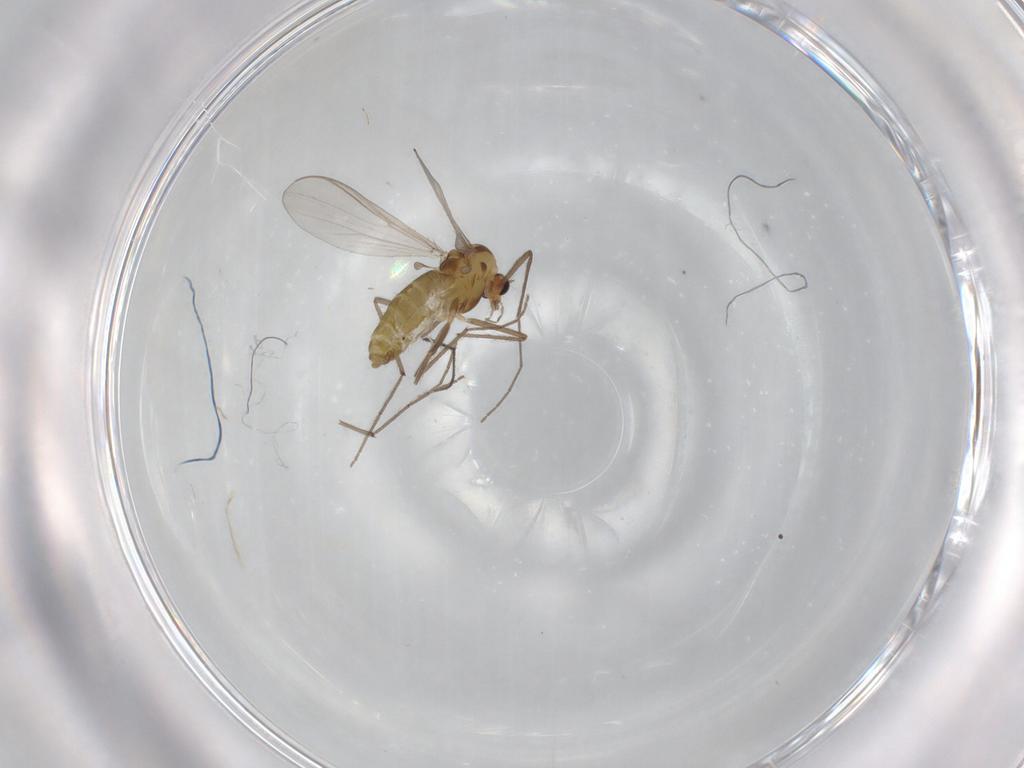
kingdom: Animalia
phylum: Arthropoda
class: Insecta
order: Diptera
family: Chironomidae
